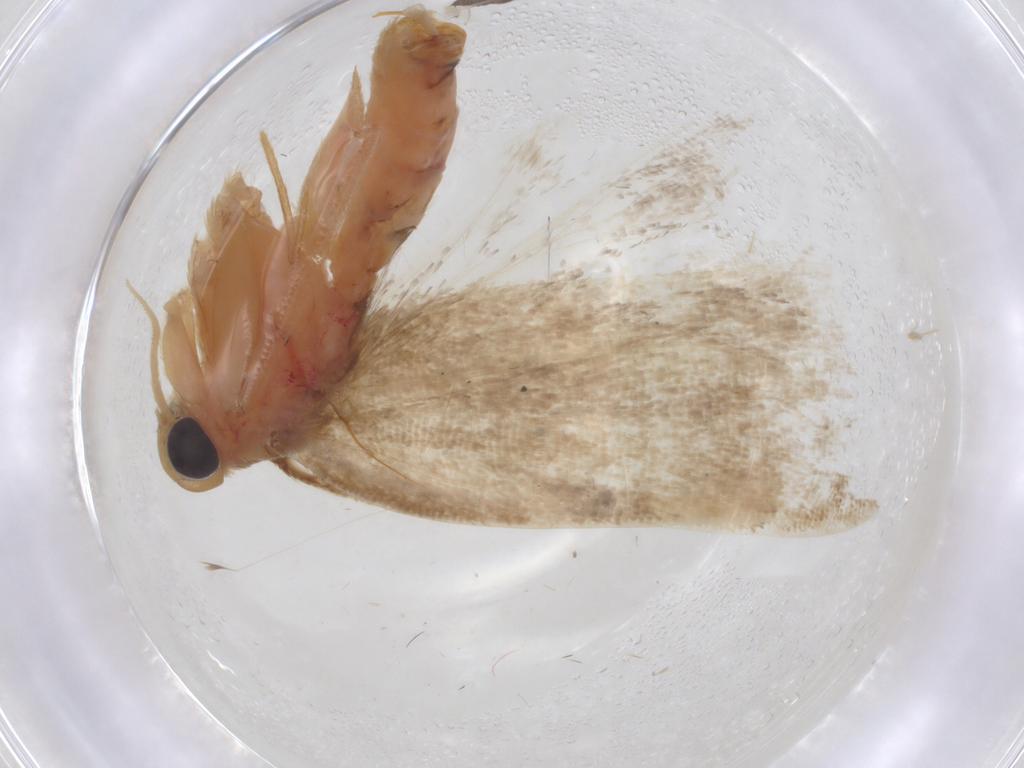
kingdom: Animalia
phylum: Arthropoda
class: Insecta
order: Lepidoptera
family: Depressariidae
